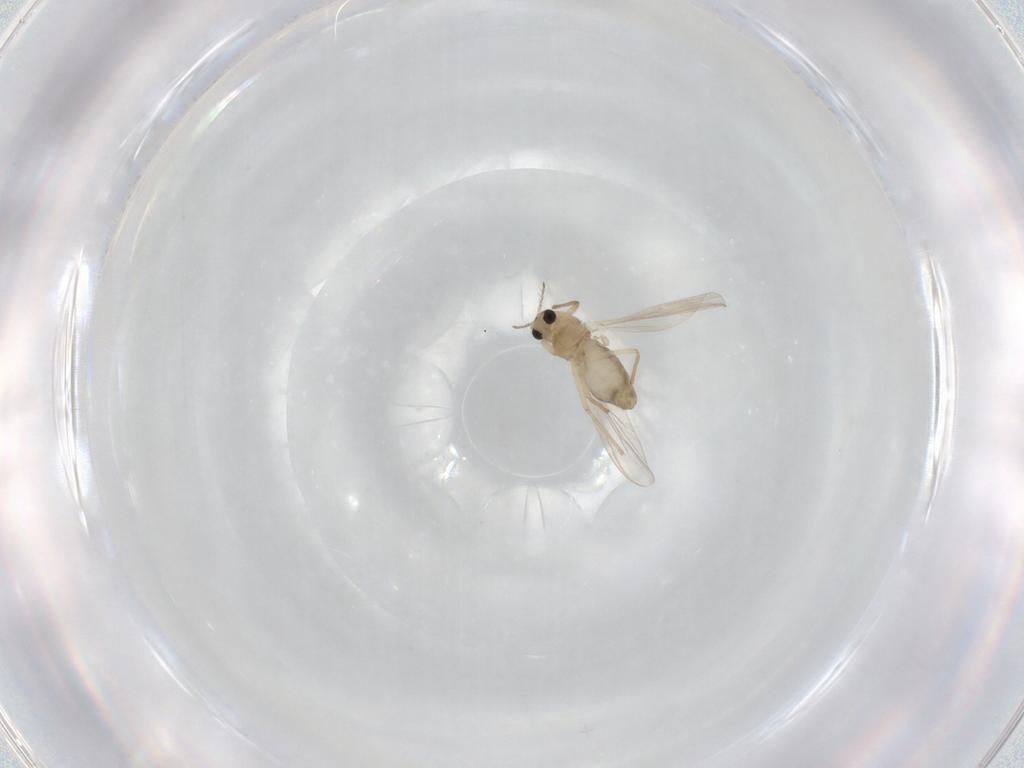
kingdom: Animalia
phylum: Arthropoda
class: Insecta
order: Diptera
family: Chironomidae
